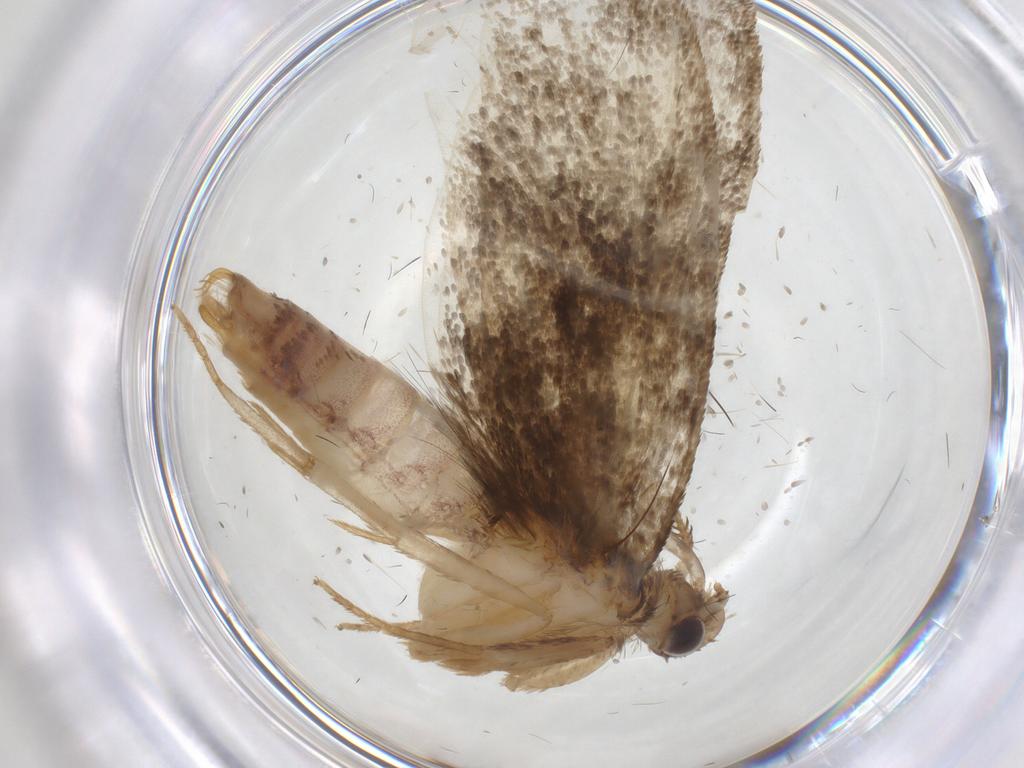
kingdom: Animalia
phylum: Arthropoda
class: Insecta
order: Lepidoptera
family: Tineidae
